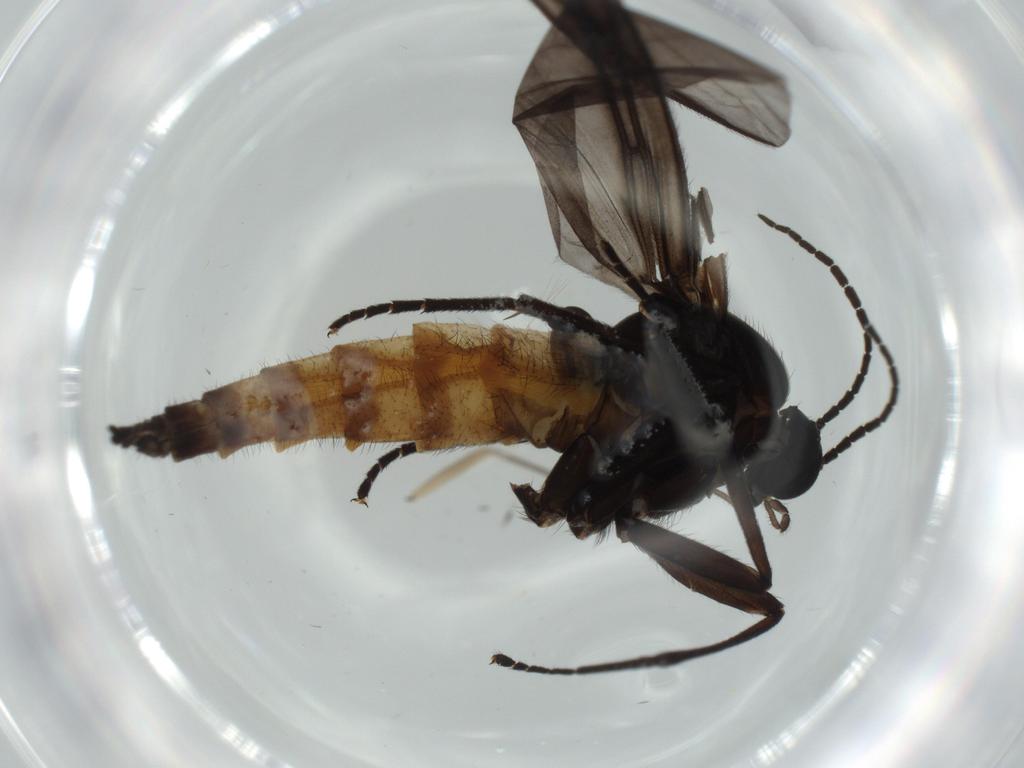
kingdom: Animalia
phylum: Arthropoda
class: Insecta
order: Diptera
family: Sciaridae
